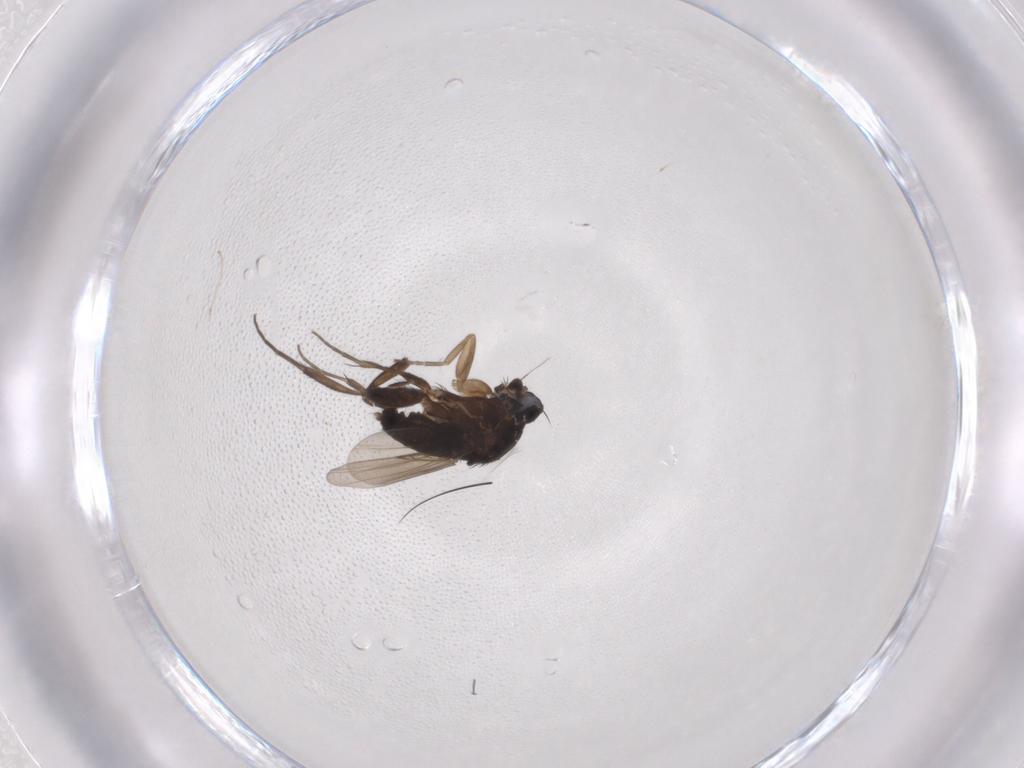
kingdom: Animalia
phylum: Arthropoda
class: Insecta
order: Diptera
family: Phoridae
